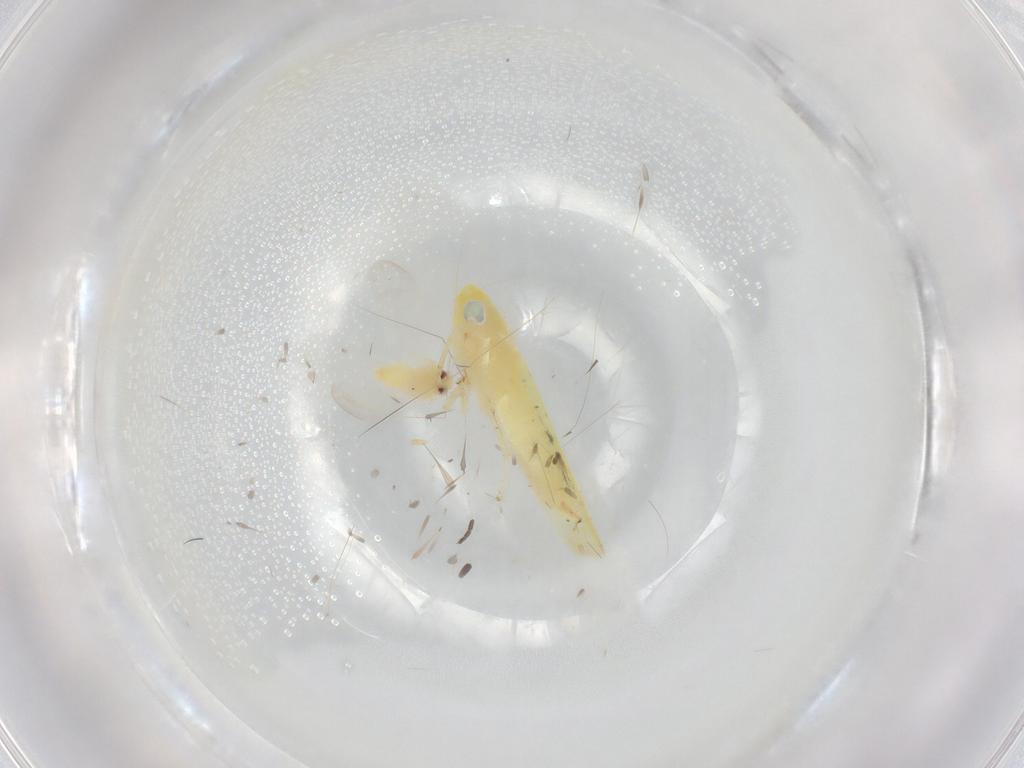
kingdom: Animalia
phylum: Arthropoda
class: Insecta
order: Hemiptera
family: Cicadellidae
